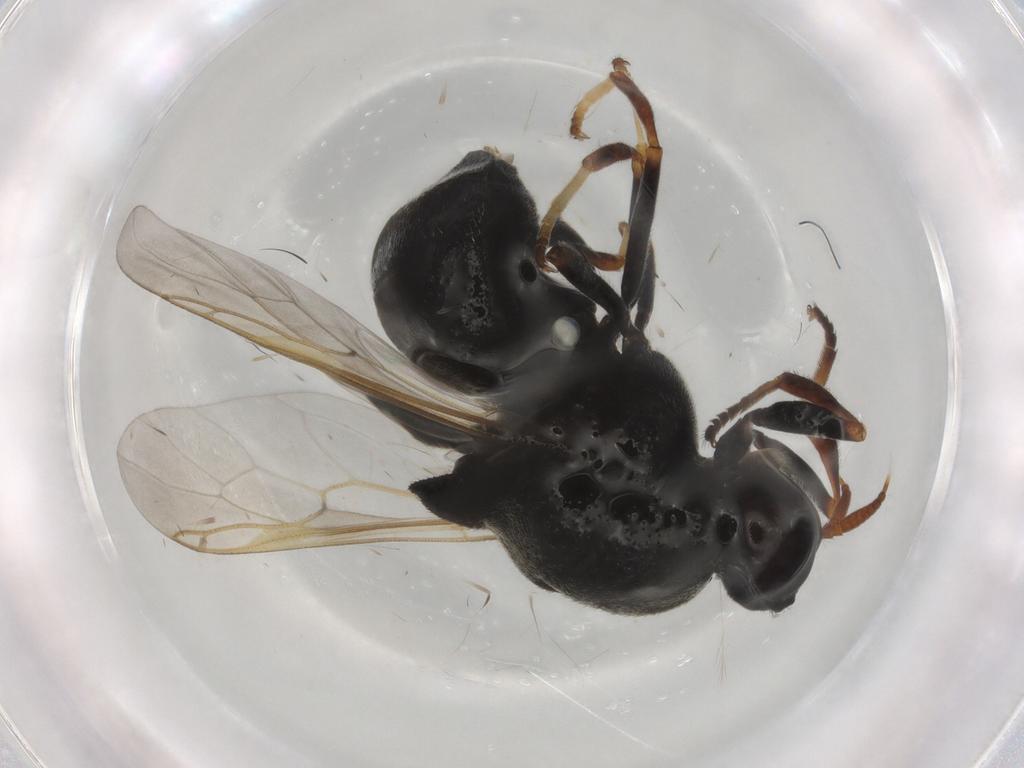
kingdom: Animalia
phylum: Arthropoda
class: Insecta
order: Diptera
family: Stratiomyidae
